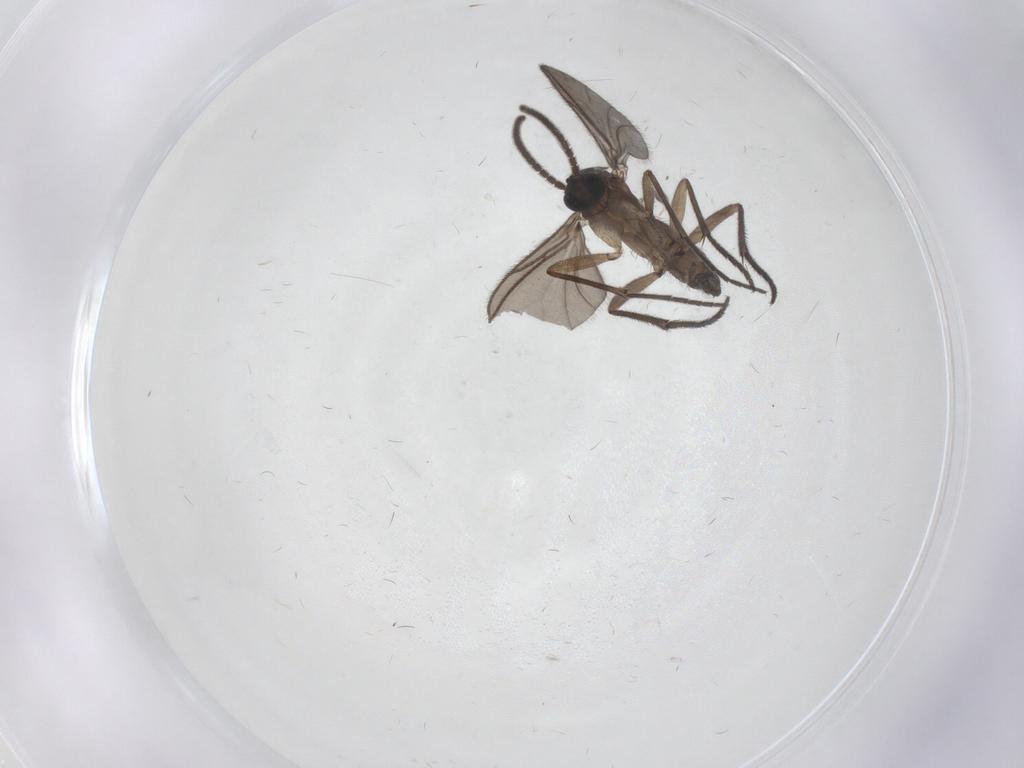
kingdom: Animalia
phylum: Arthropoda
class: Insecta
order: Diptera
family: Sciaridae
